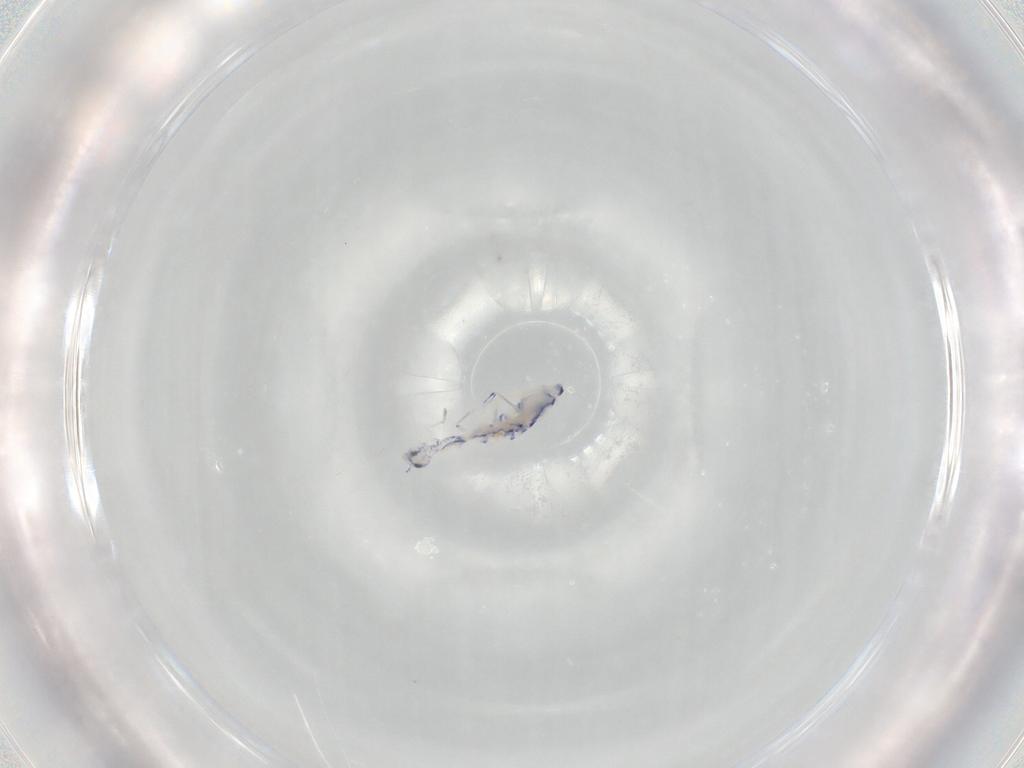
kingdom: Animalia
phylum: Arthropoda
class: Collembola
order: Entomobryomorpha
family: Entomobryidae
